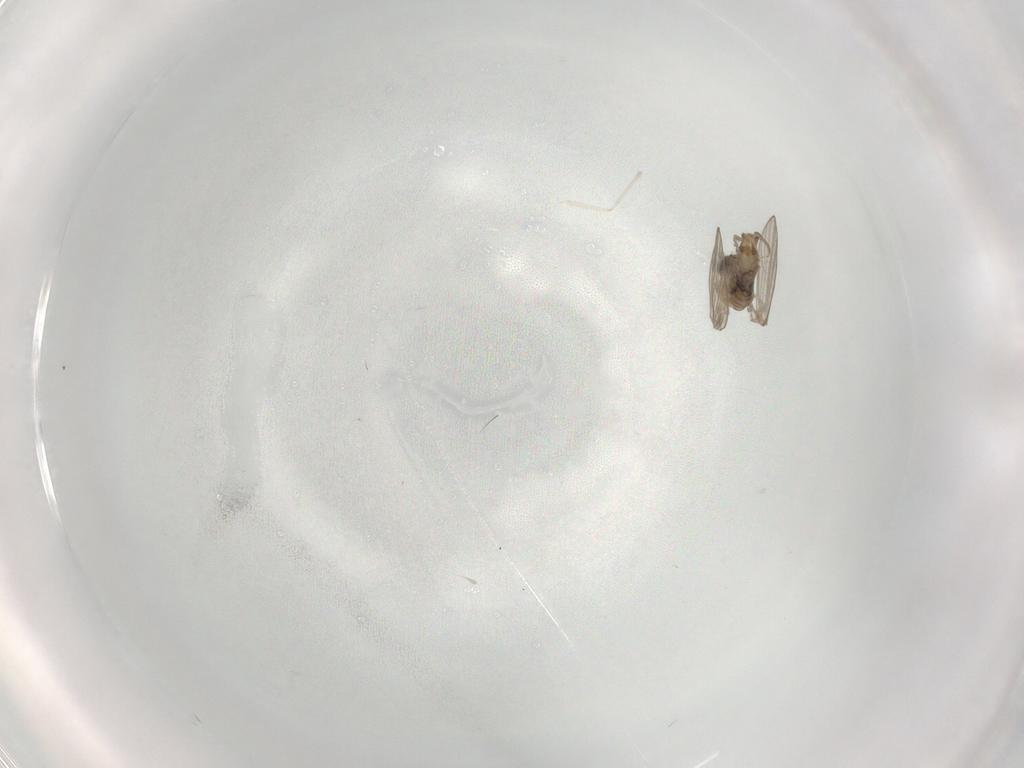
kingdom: Animalia
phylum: Arthropoda
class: Insecta
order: Diptera
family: Psychodidae
